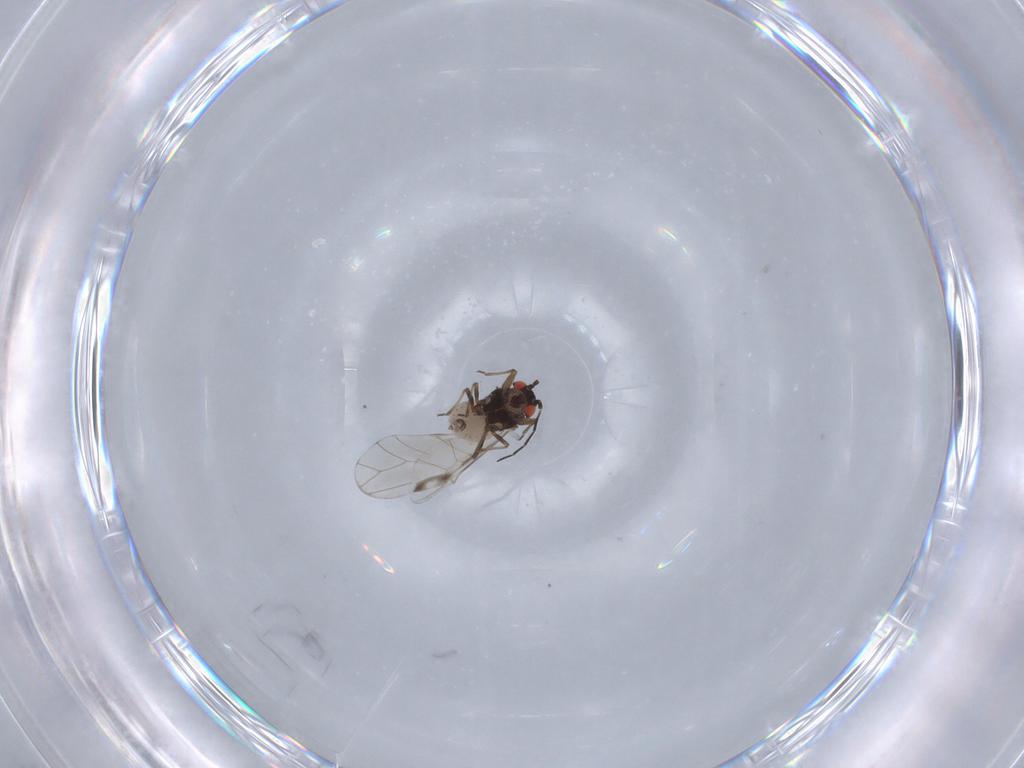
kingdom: Animalia
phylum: Arthropoda
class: Insecta
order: Hemiptera
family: Aphididae
